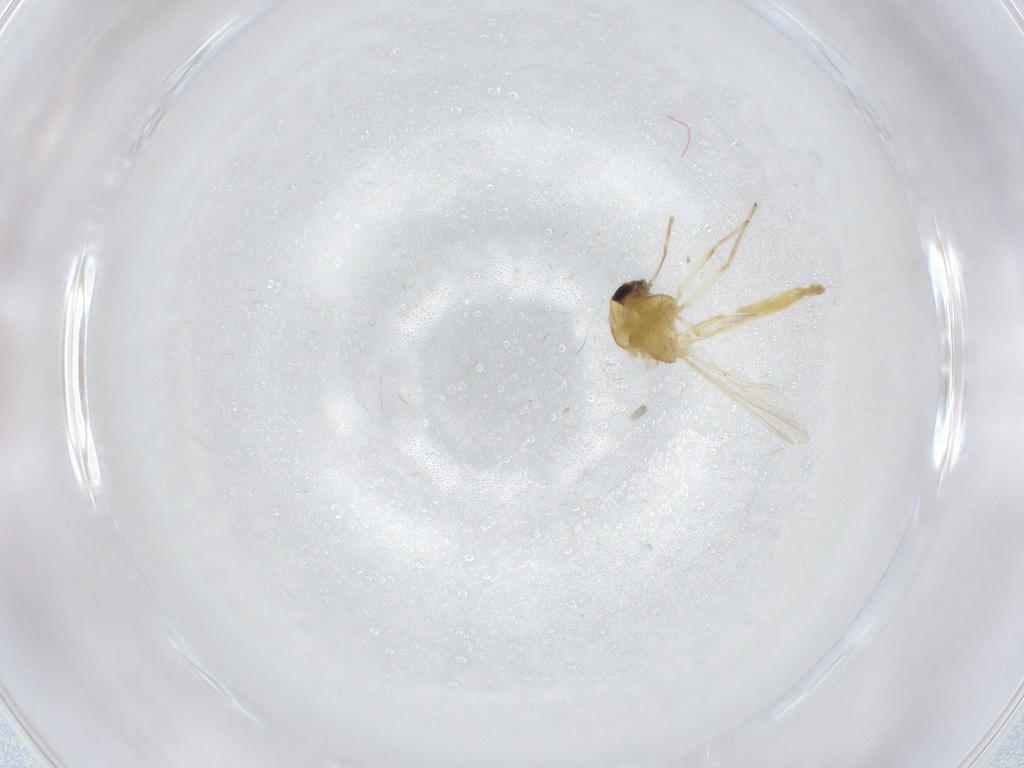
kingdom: Animalia
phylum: Arthropoda
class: Insecta
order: Diptera
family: Chironomidae
